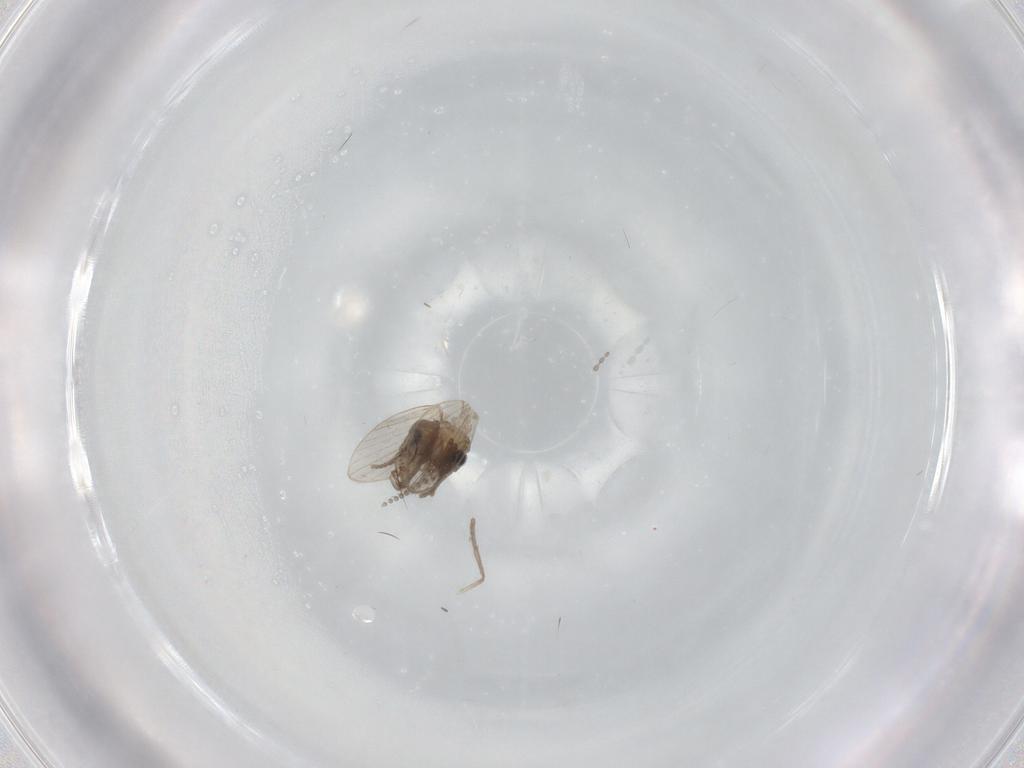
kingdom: Animalia
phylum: Arthropoda
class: Insecta
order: Diptera
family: Psychodidae
